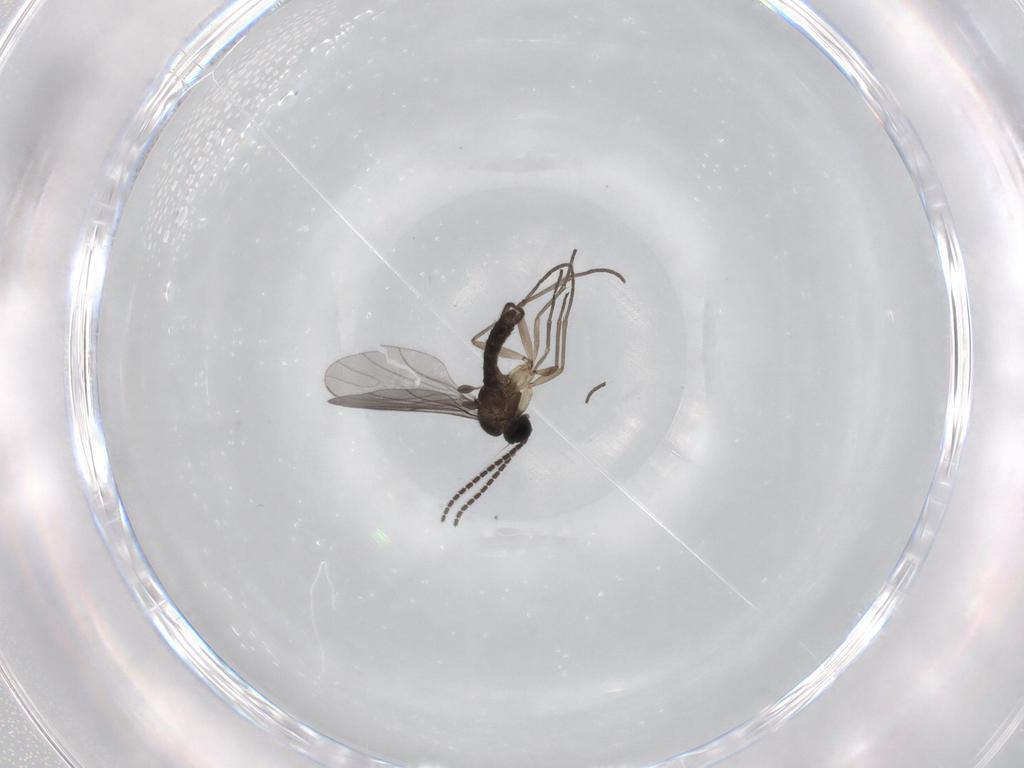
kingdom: Animalia
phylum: Arthropoda
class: Insecta
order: Diptera
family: Sciaridae
